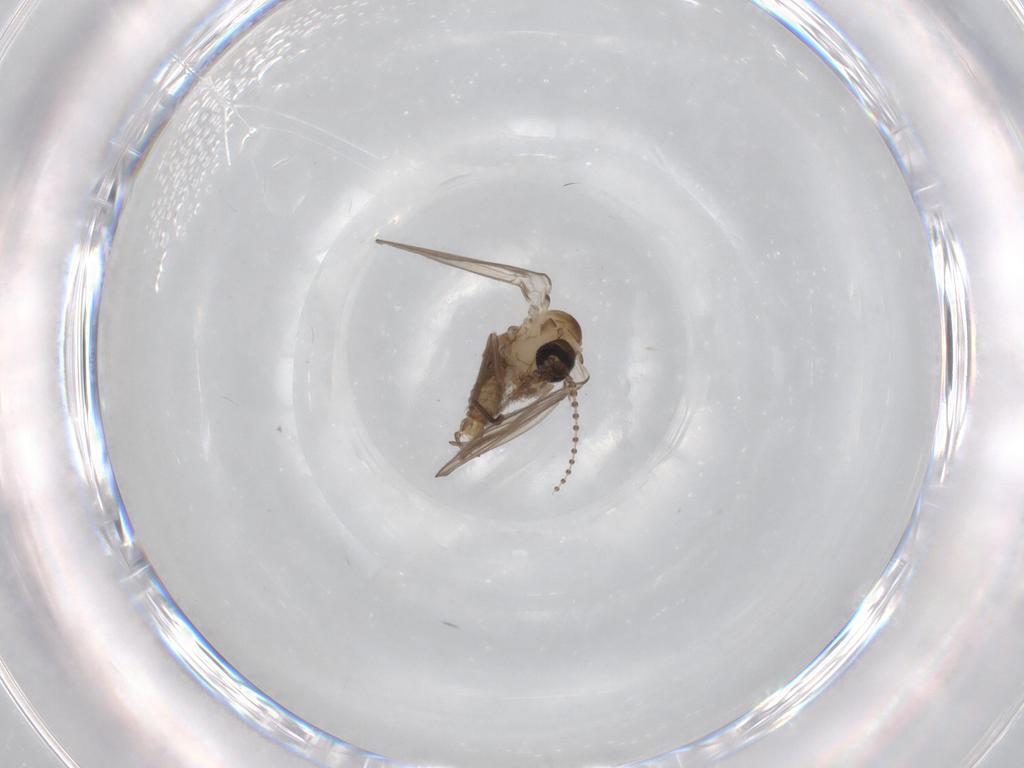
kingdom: Animalia
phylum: Arthropoda
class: Insecta
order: Diptera
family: Psychodidae
